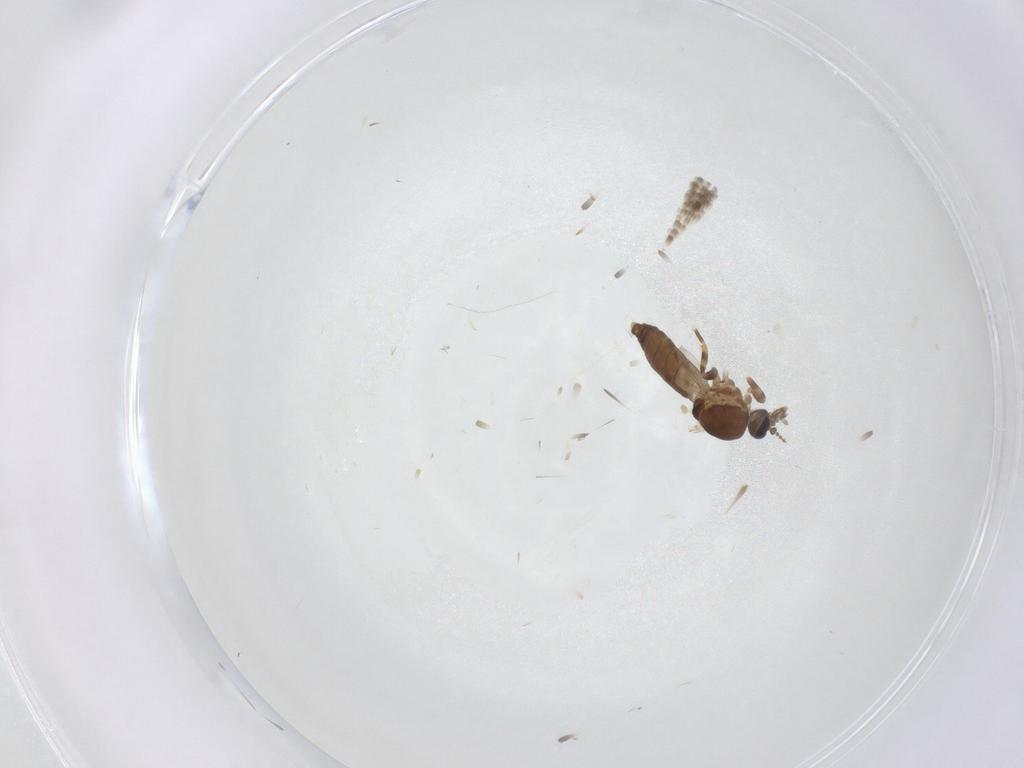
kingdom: Animalia
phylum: Arthropoda
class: Insecta
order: Diptera
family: Ceratopogonidae
